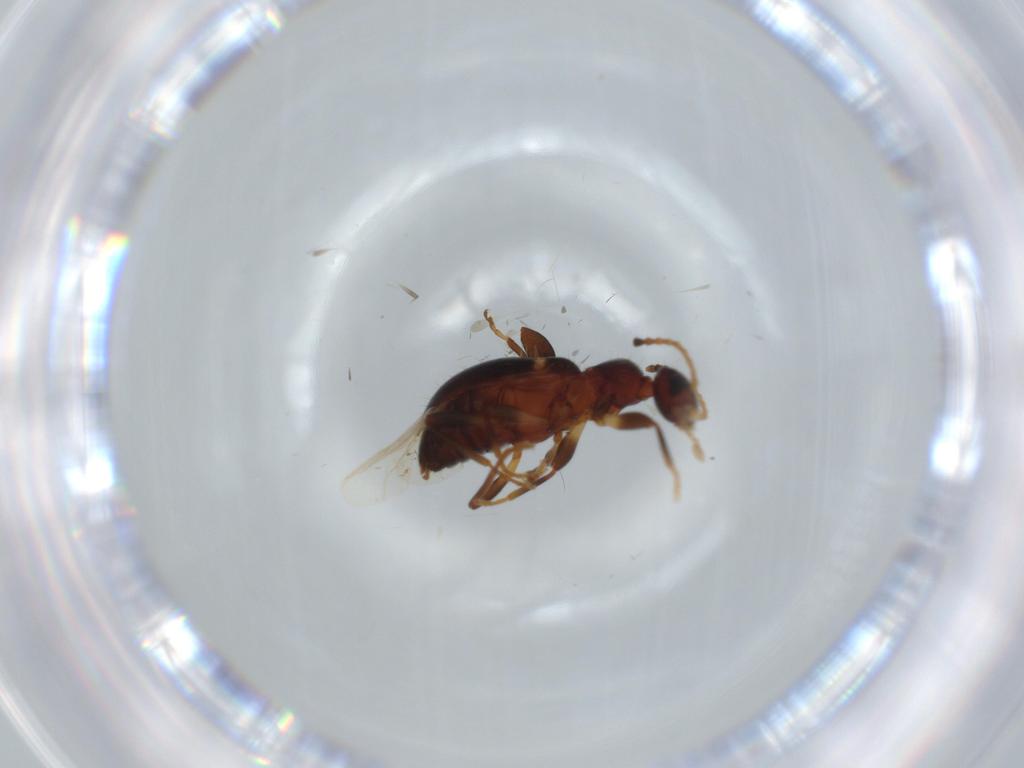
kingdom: Animalia
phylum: Arthropoda
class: Insecta
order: Coleoptera
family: Anthicidae
